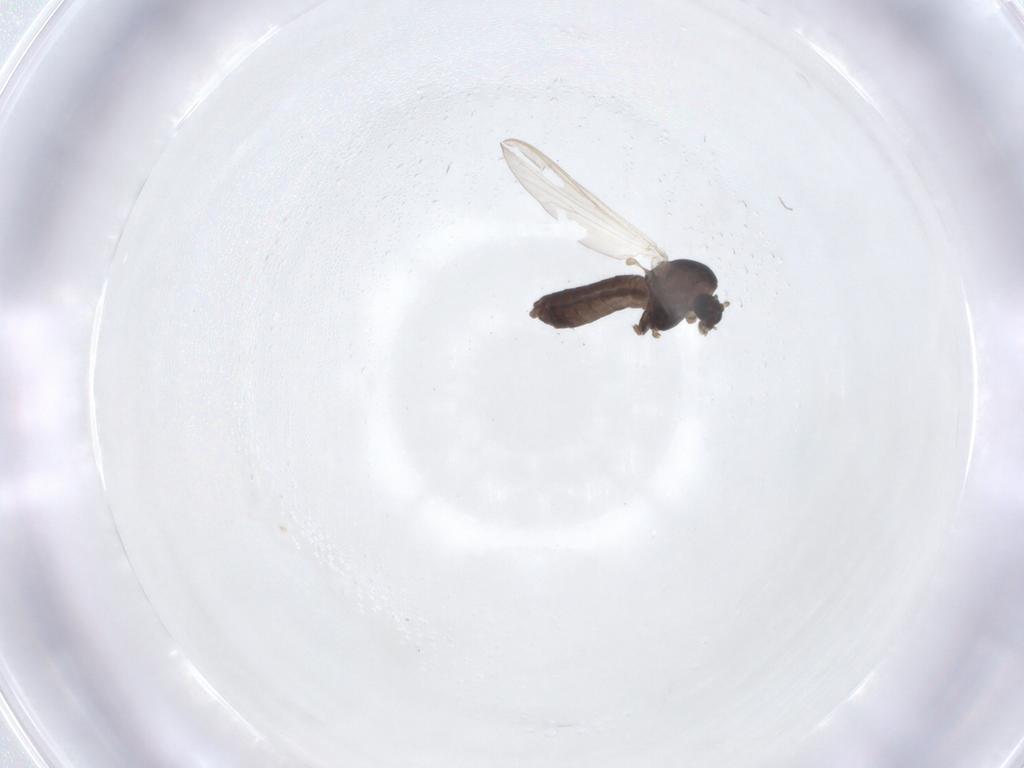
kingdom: Animalia
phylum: Arthropoda
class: Insecta
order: Diptera
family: Chironomidae
